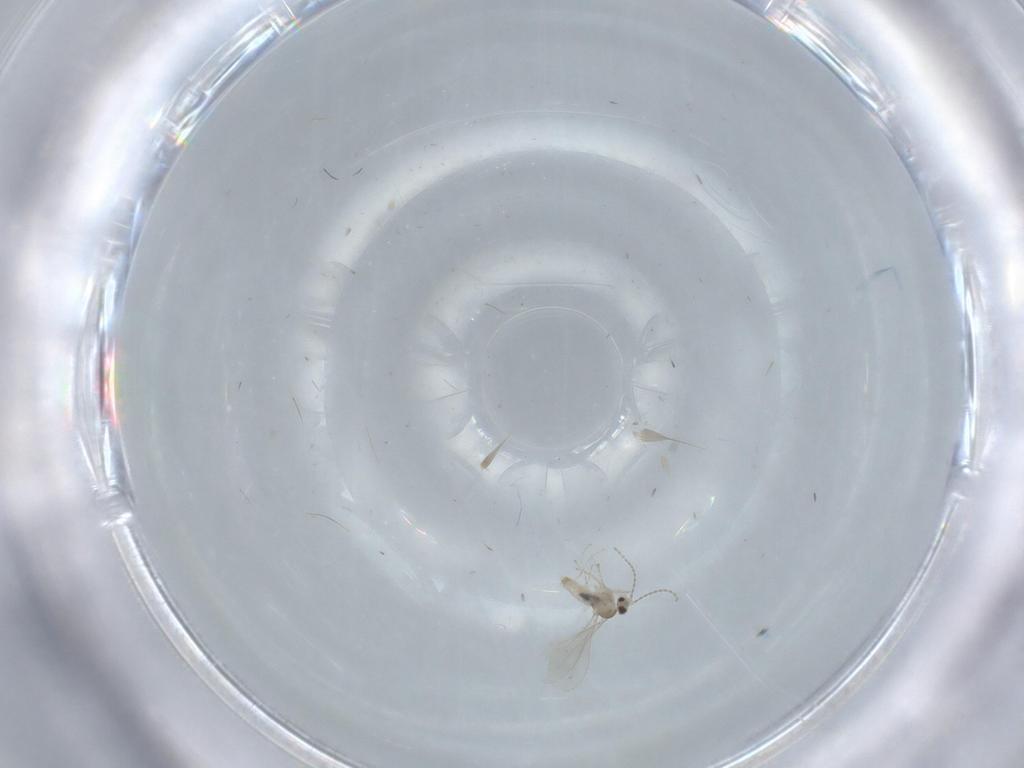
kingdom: Animalia
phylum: Arthropoda
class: Insecta
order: Diptera
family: Cecidomyiidae
